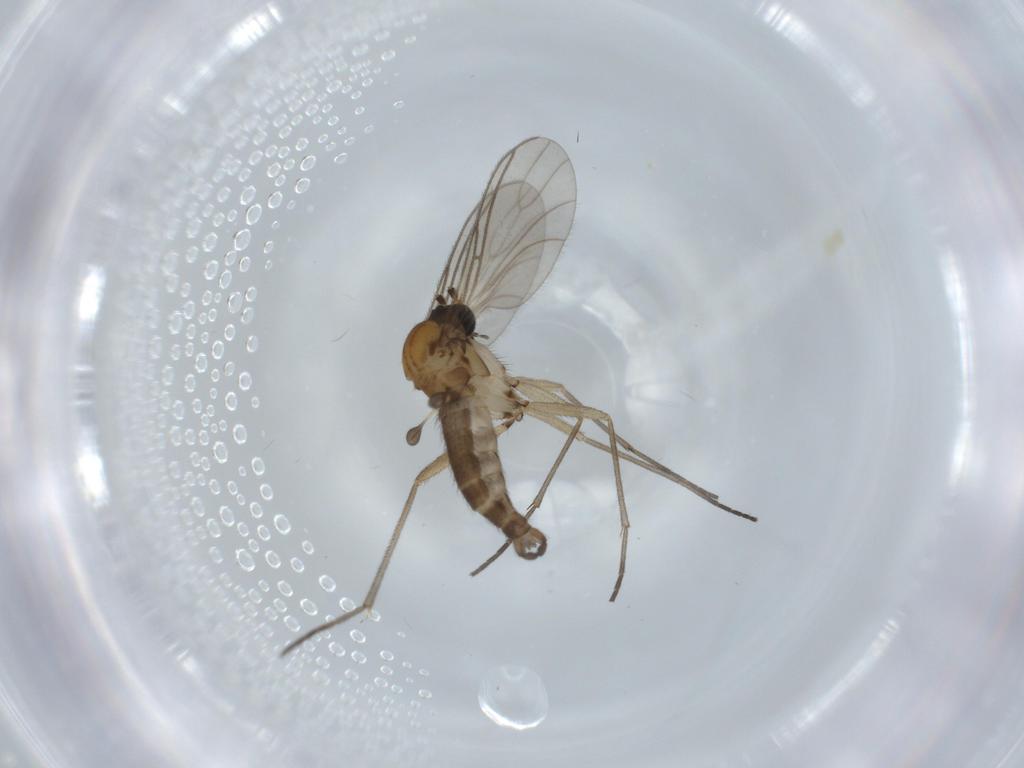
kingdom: Animalia
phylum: Arthropoda
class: Insecta
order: Diptera
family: Sciaridae
